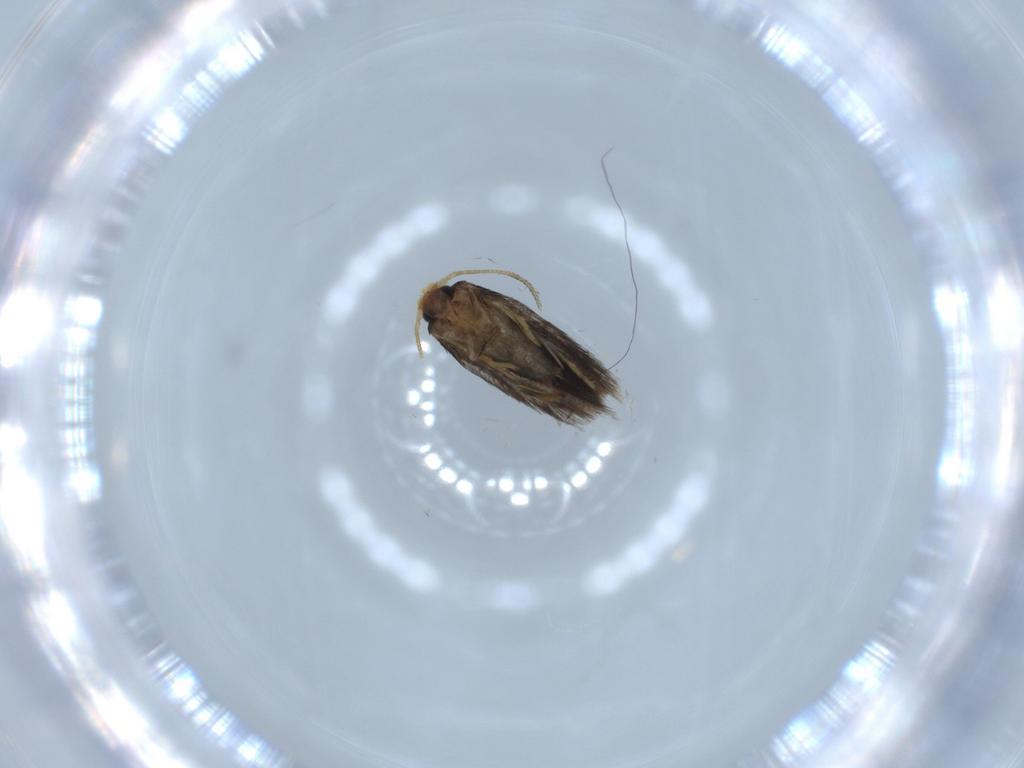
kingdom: Animalia
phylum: Arthropoda
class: Insecta
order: Lepidoptera
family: Nepticulidae
